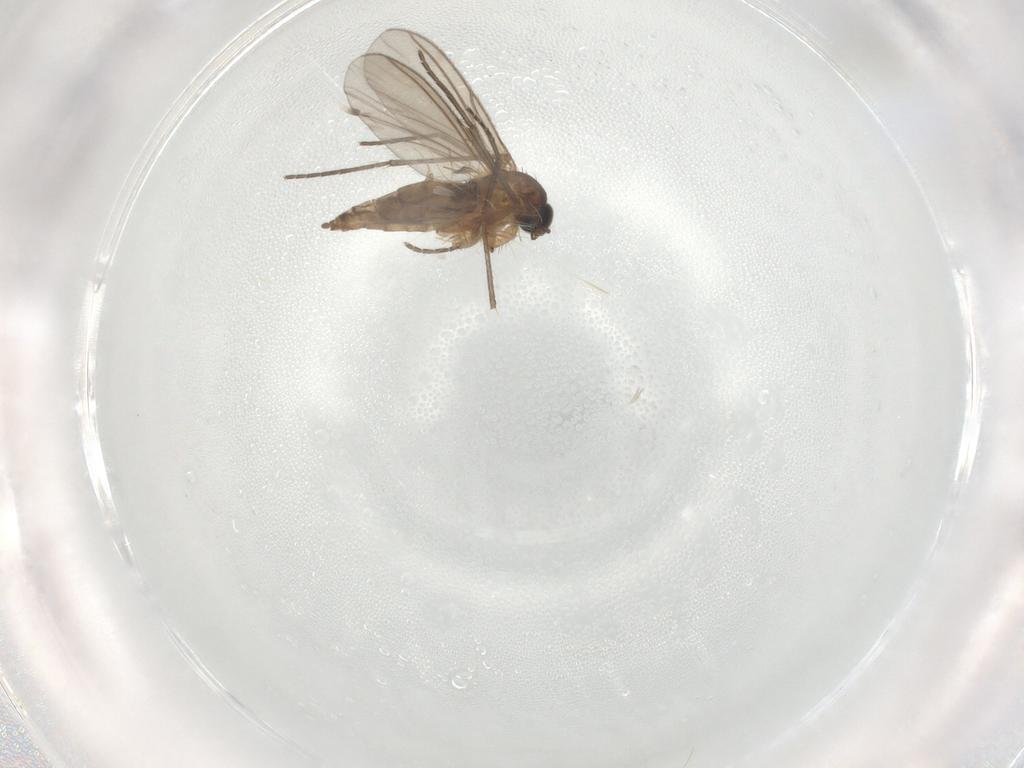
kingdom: Animalia
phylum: Arthropoda
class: Insecta
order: Diptera
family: Sciaridae
